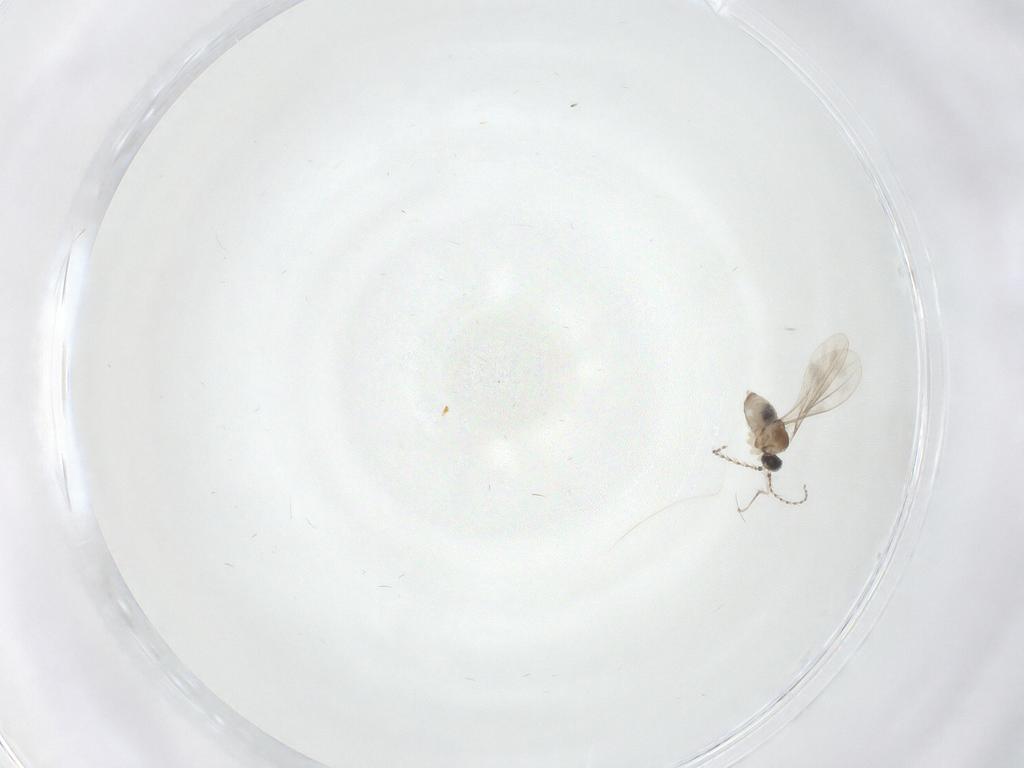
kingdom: Animalia
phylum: Arthropoda
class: Insecta
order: Diptera
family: Cecidomyiidae
